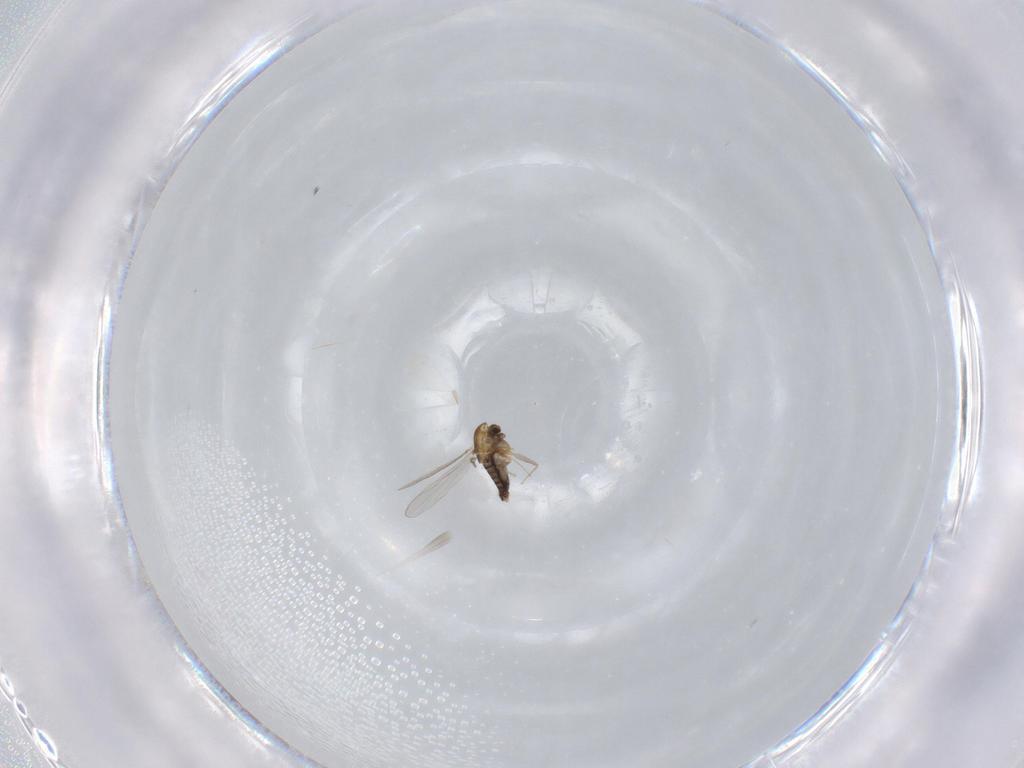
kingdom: Animalia
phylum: Arthropoda
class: Insecta
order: Diptera
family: Chironomidae
